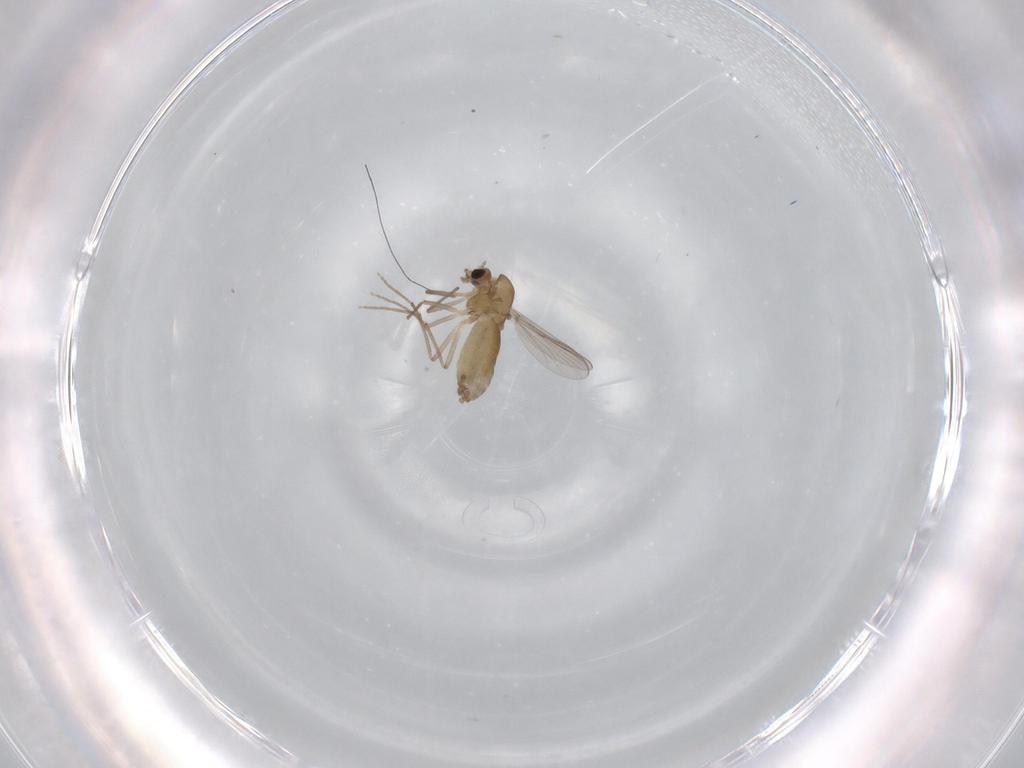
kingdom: Animalia
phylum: Arthropoda
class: Insecta
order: Diptera
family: Chironomidae
